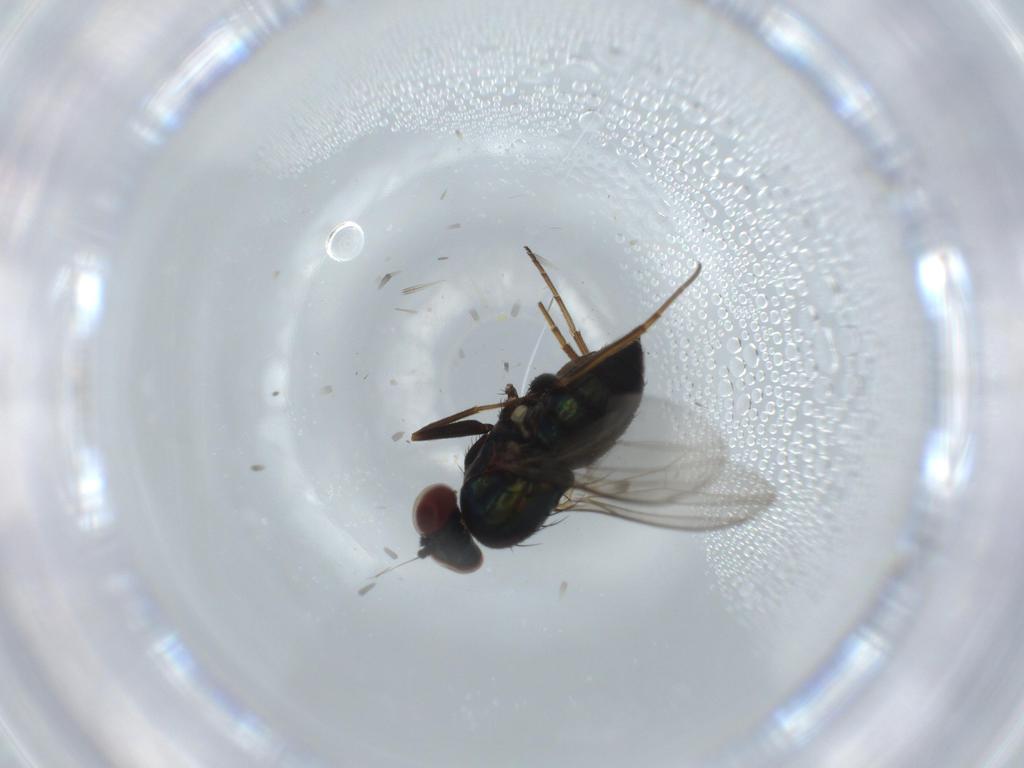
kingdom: Animalia
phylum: Arthropoda
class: Insecta
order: Diptera
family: Dolichopodidae
